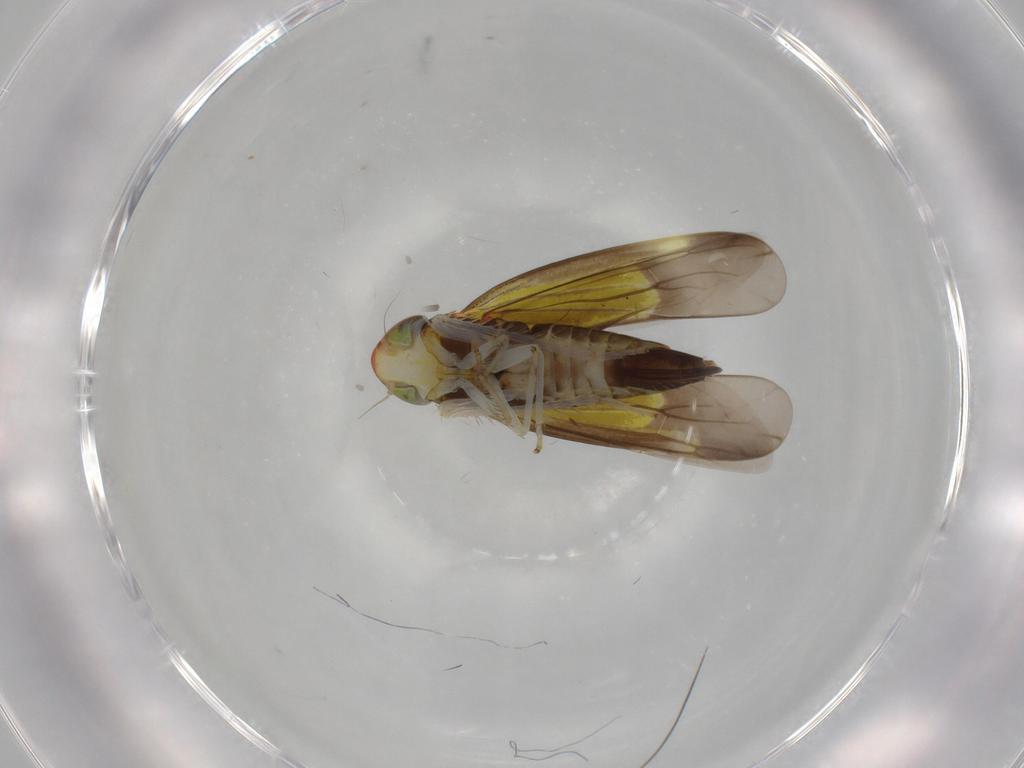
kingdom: Animalia
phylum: Arthropoda
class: Insecta
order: Hemiptera
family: Cicadellidae
